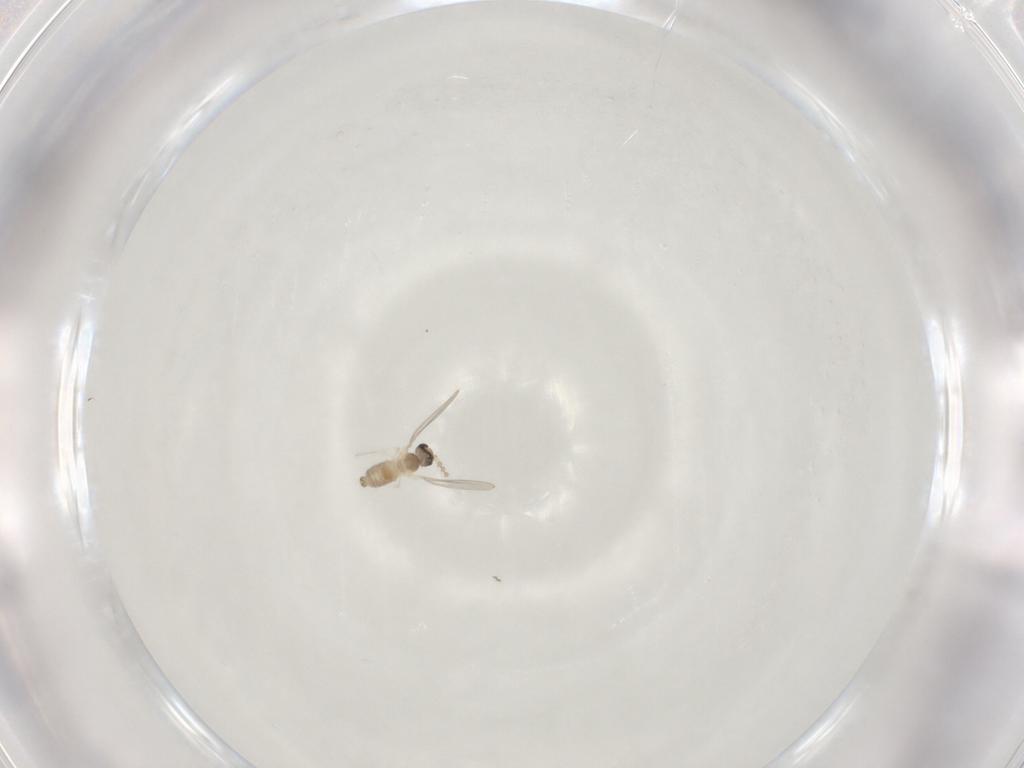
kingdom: Animalia
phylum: Arthropoda
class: Insecta
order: Diptera
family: Cecidomyiidae
